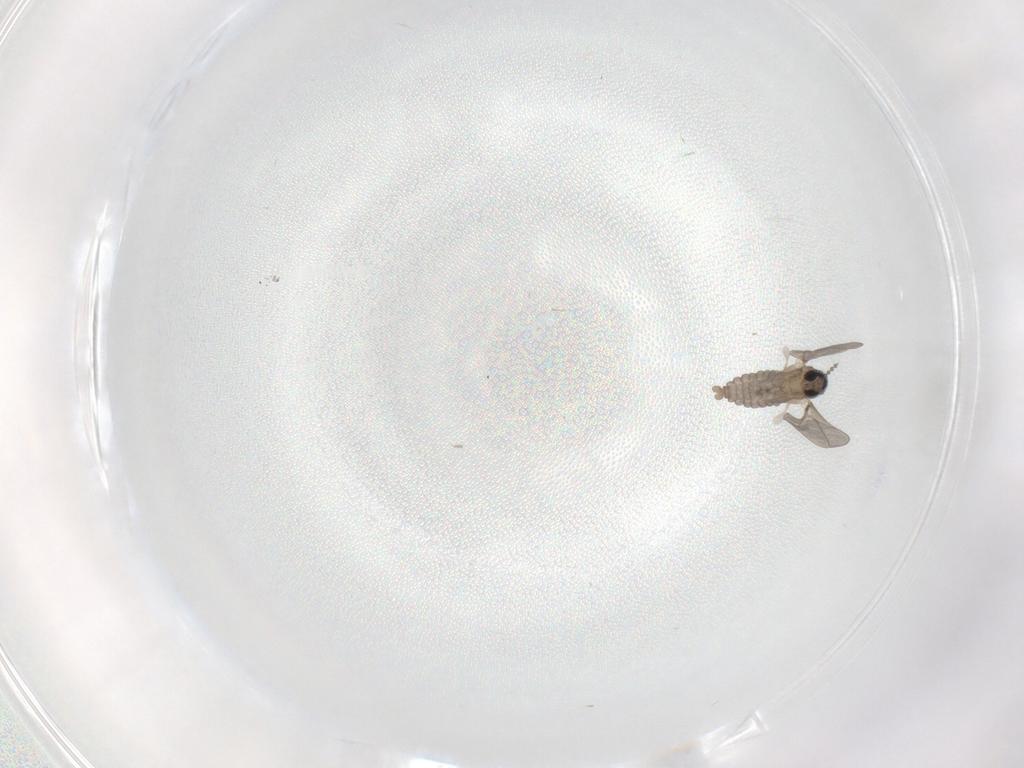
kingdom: Animalia
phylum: Arthropoda
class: Insecta
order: Diptera
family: Limoniidae
